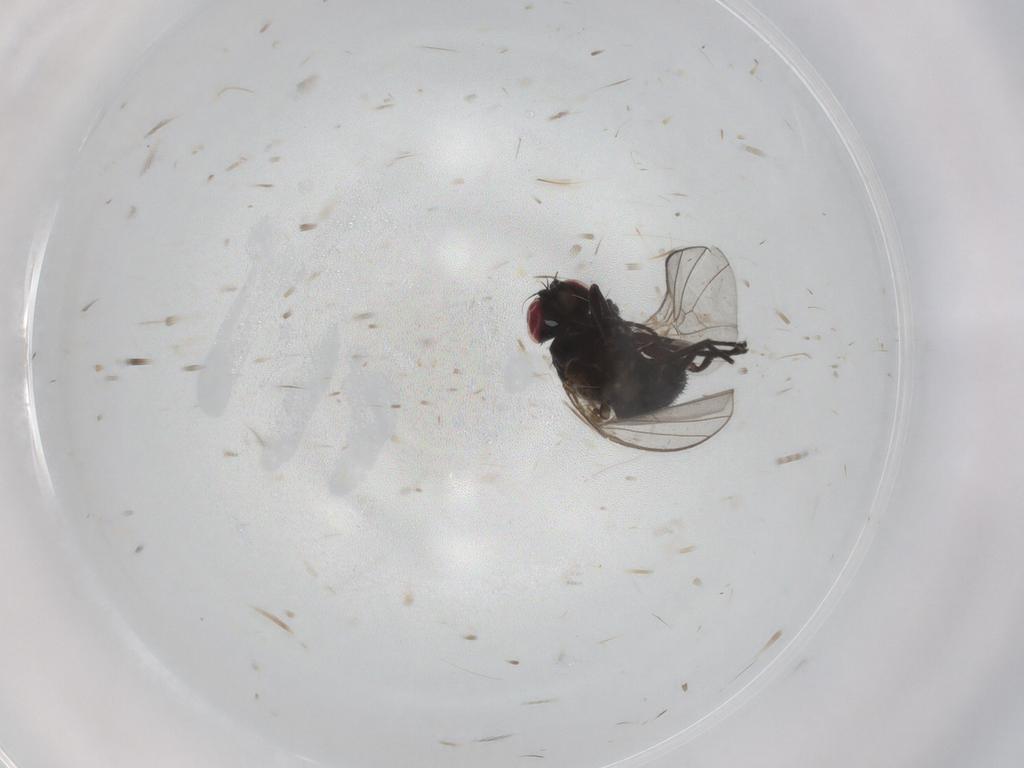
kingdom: Animalia
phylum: Arthropoda
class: Insecta
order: Diptera
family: Agromyzidae
